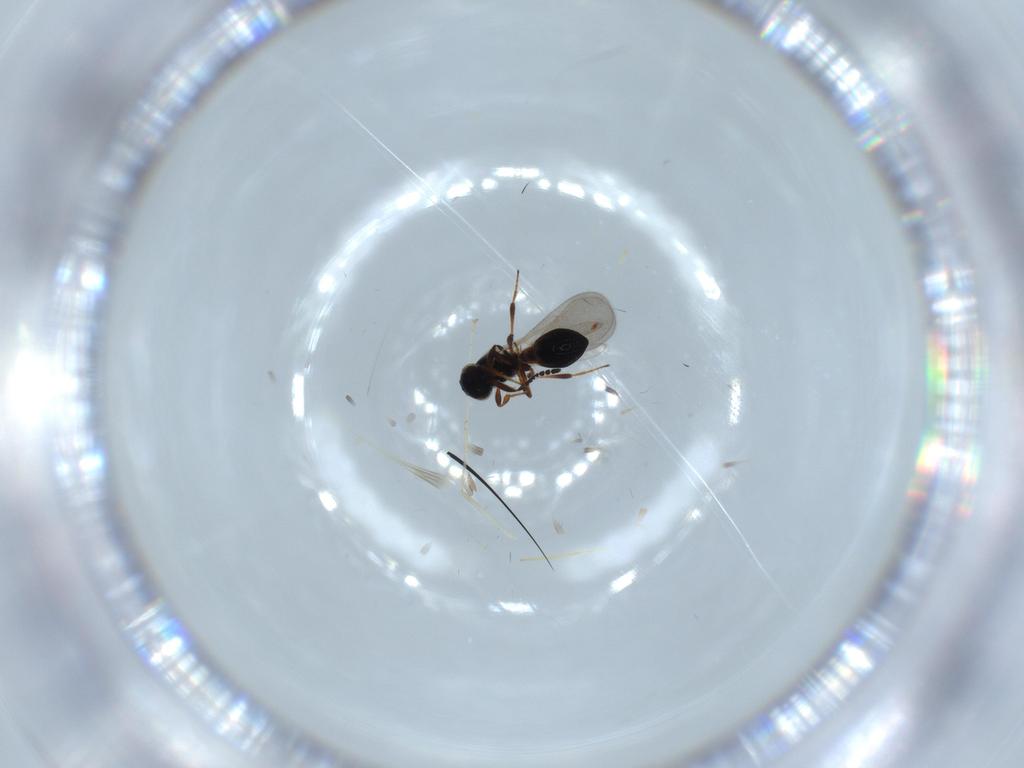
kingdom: Animalia
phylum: Arthropoda
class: Insecta
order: Hymenoptera
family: Platygastridae
